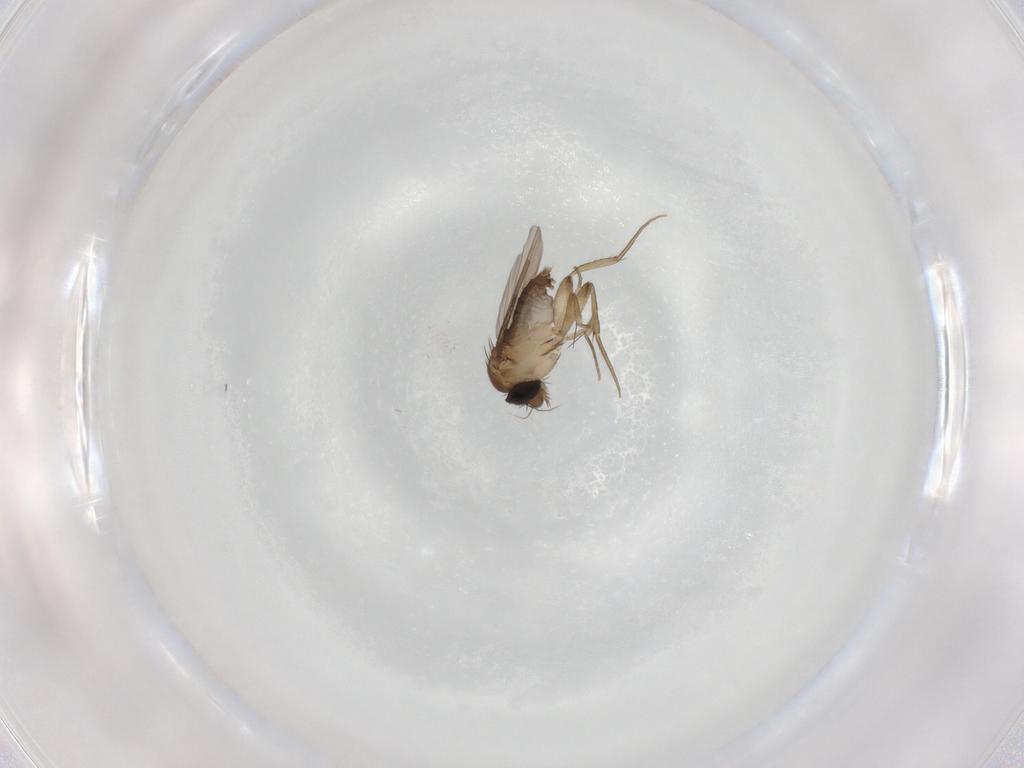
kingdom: Animalia
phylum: Arthropoda
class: Insecta
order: Diptera
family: Phoridae
